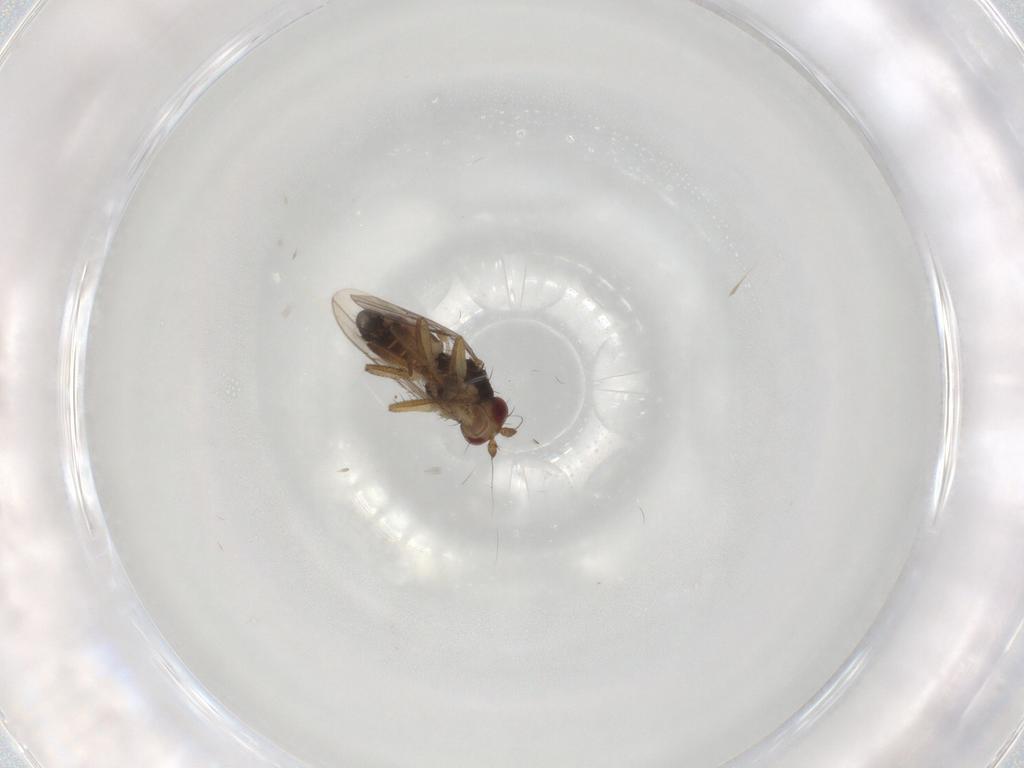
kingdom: Animalia
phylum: Arthropoda
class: Insecta
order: Diptera
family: Sphaeroceridae
